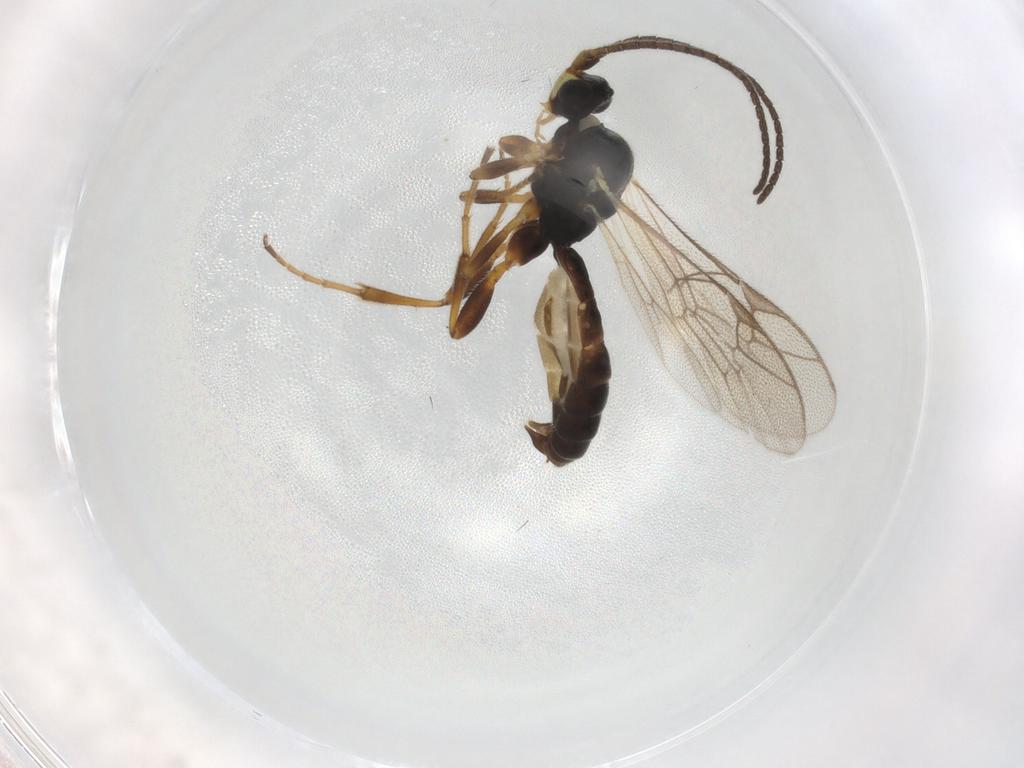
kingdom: Animalia
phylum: Arthropoda
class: Insecta
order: Hymenoptera
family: Ichneumonidae
